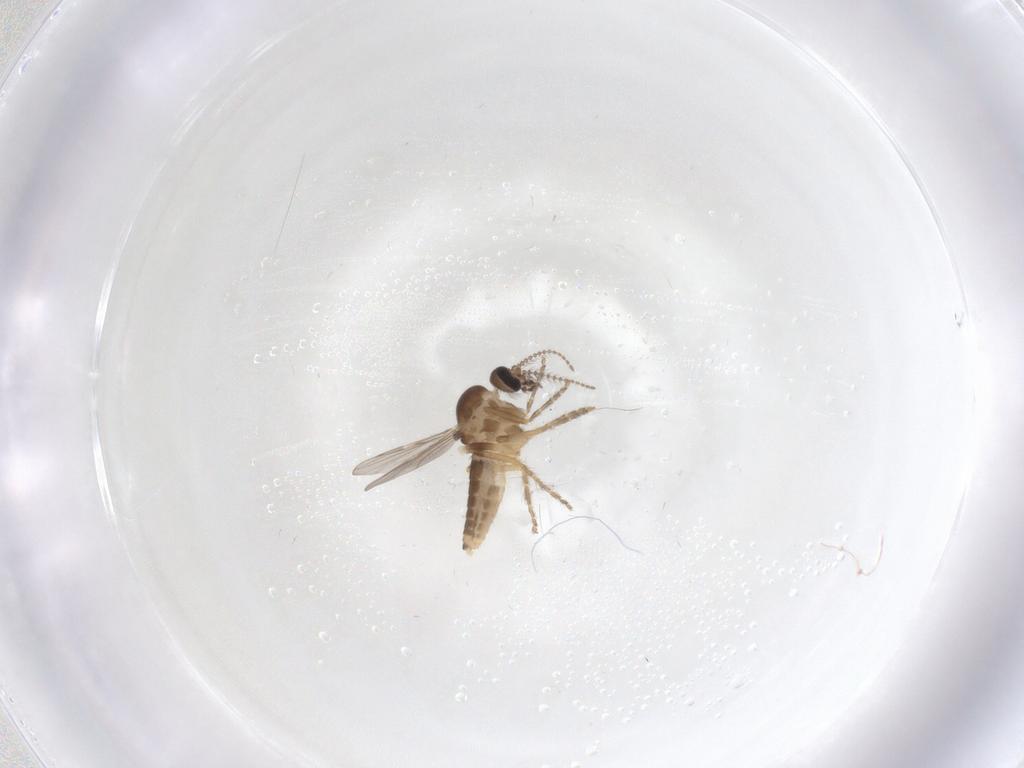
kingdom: Animalia
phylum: Arthropoda
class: Insecta
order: Diptera
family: Ceratopogonidae
